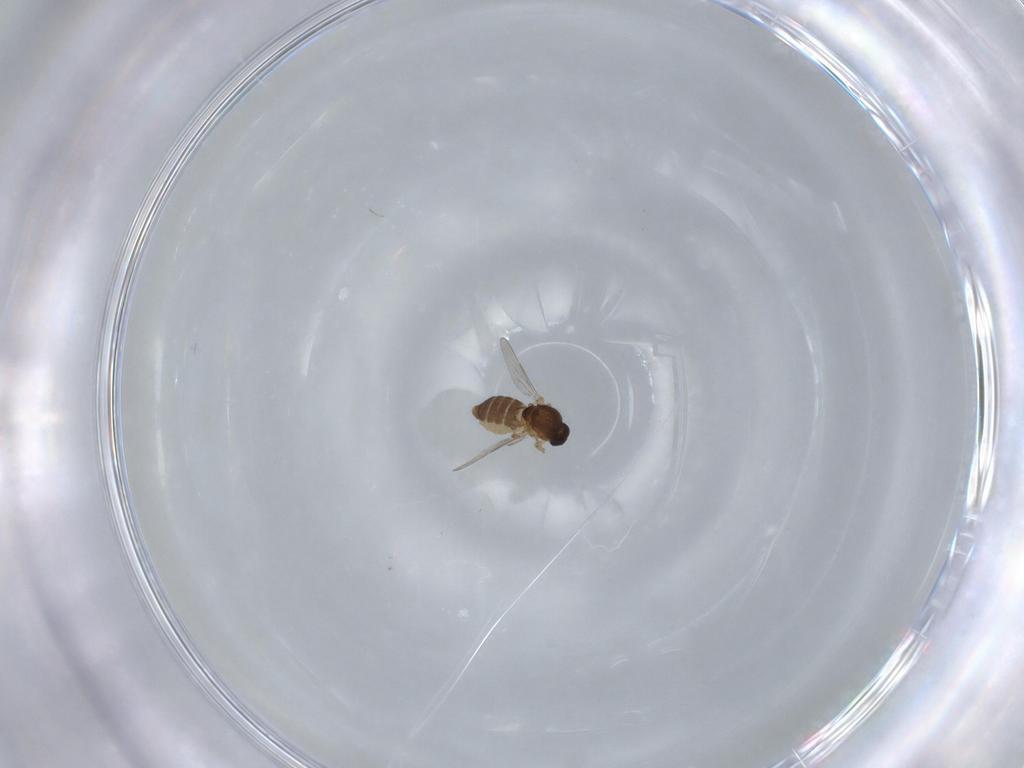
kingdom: Animalia
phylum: Arthropoda
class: Insecta
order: Diptera
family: Ceratopogonidae
